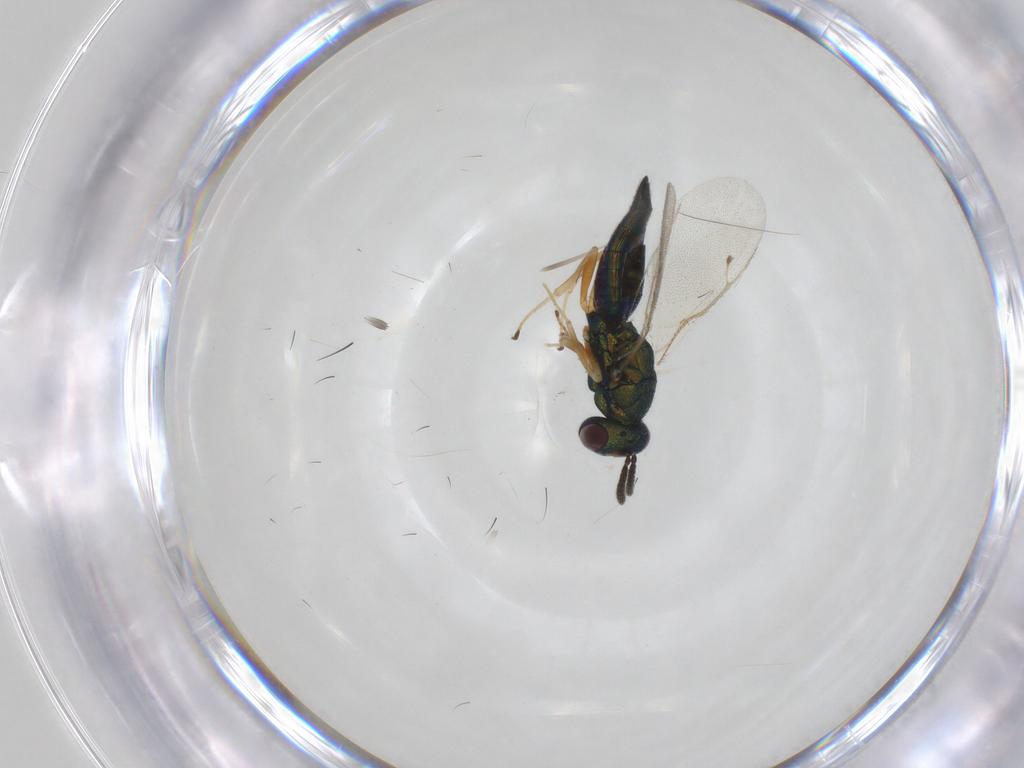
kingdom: Animalia
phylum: Arthropoda
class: Insecta
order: Hymenoptera
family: Pteromalidae
